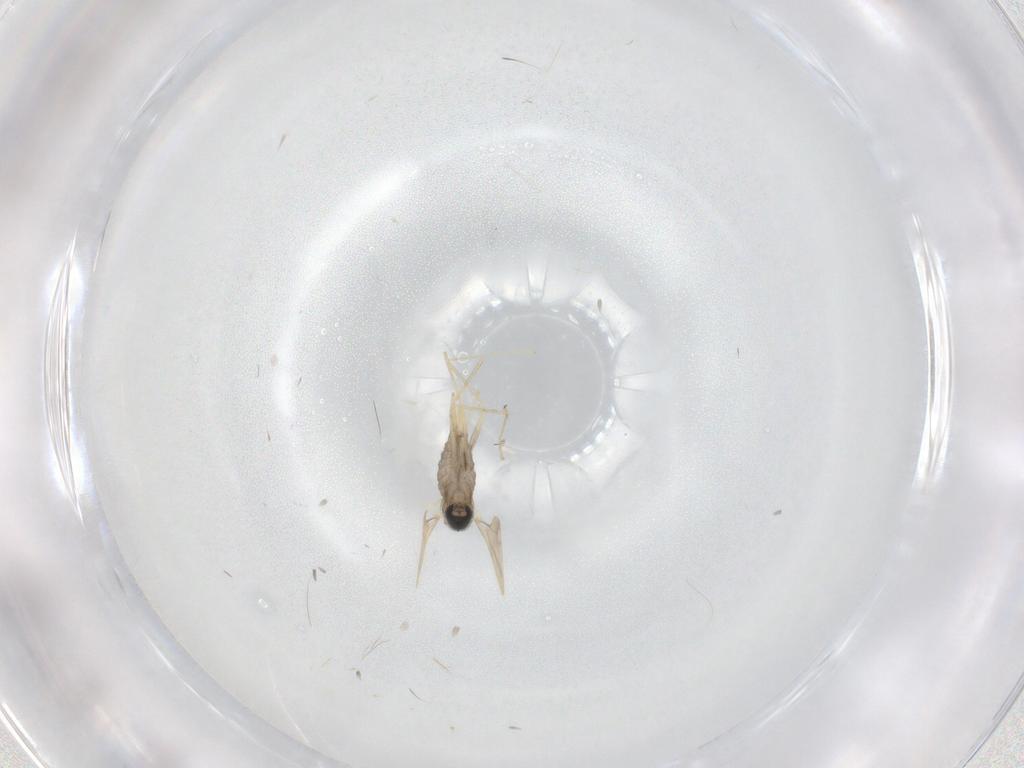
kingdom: Animalia
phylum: Arthropoda
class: Insecta
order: Diptera
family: Cecidomyiidae
